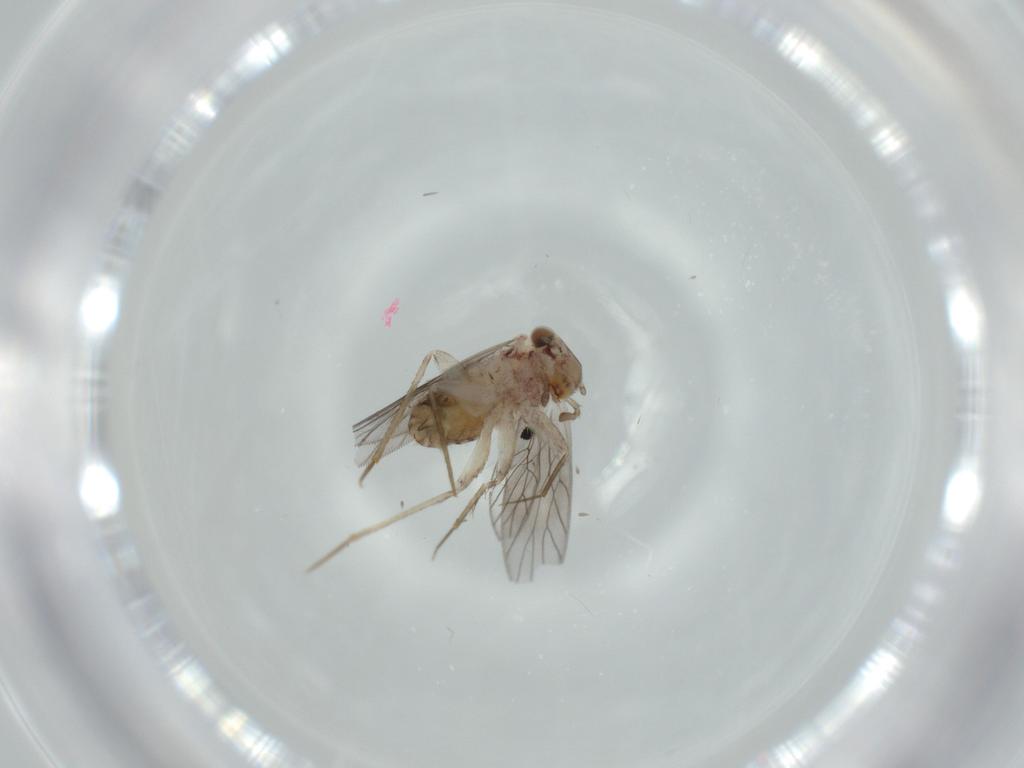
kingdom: Animalia
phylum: Arthropoda
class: Insecta
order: Psocodea
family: Lepidopsocidae
